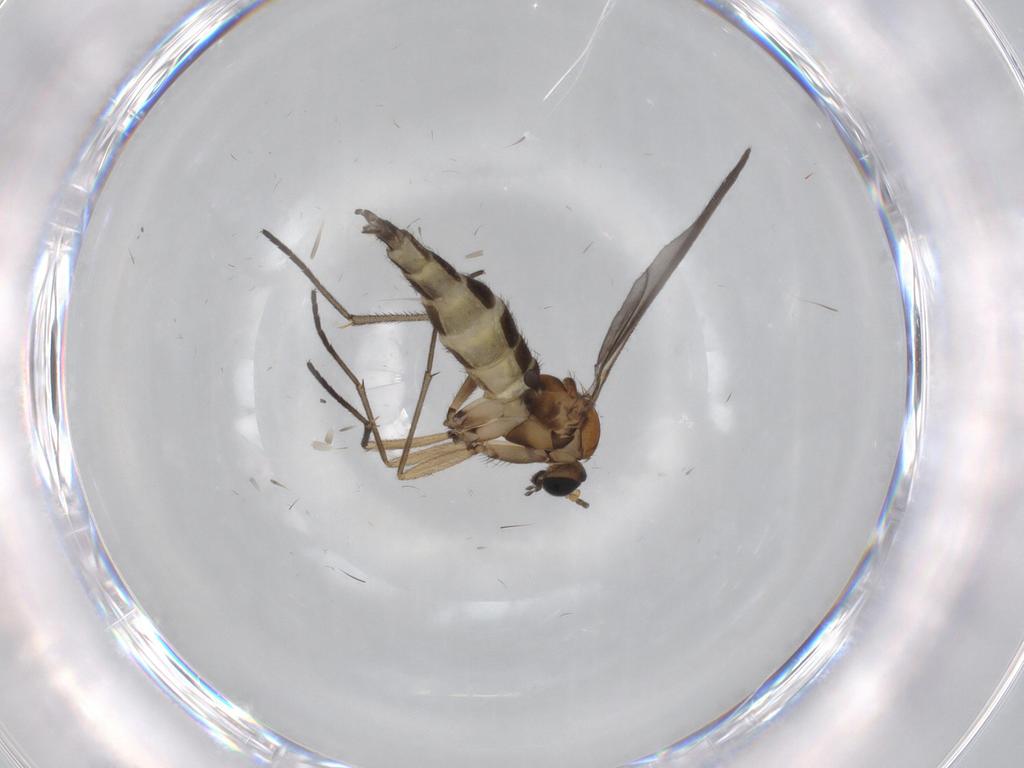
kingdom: Animalia
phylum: Arthropoda
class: Insecta
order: Diptera
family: Sciaridae
